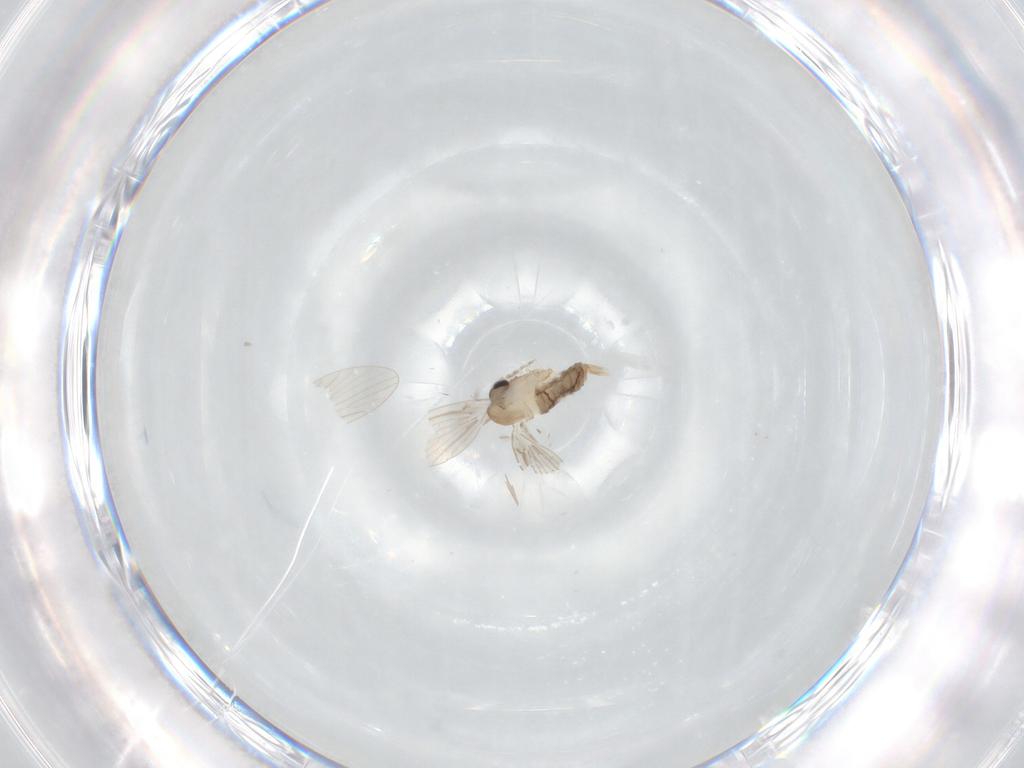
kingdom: Animalia
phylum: Arthropoda
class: Insecta
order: Diptera
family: Psychodidae
